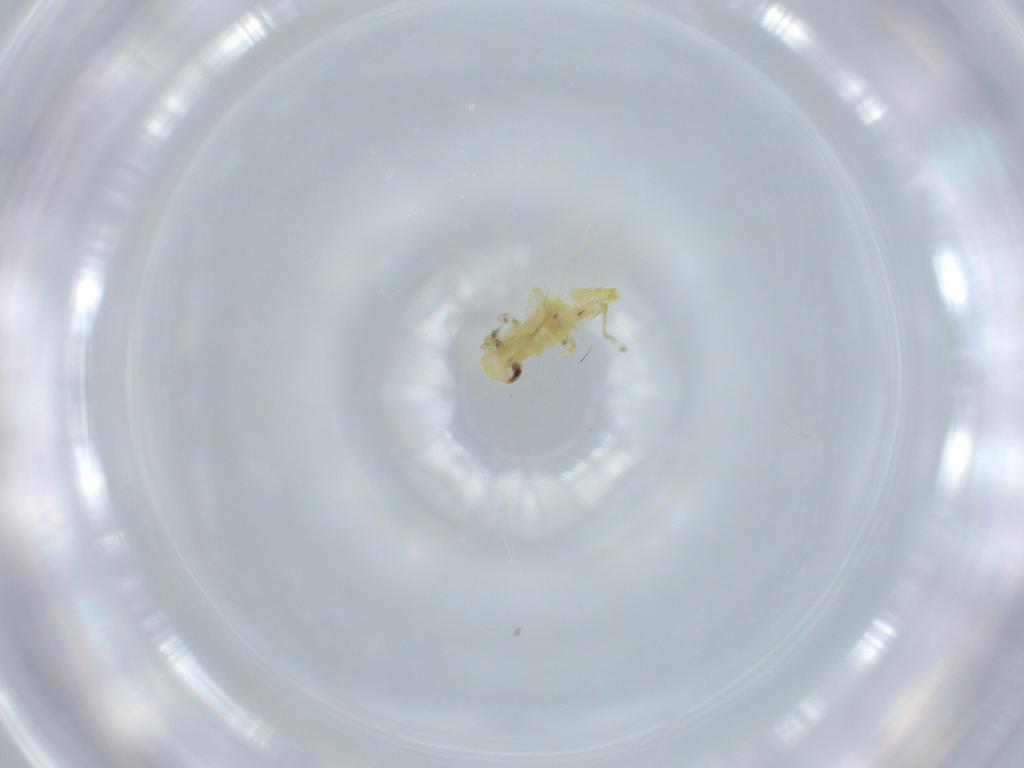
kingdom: Animalia
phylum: Arthropoda
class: Insecta
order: Hemiptera
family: Cicadellidae
